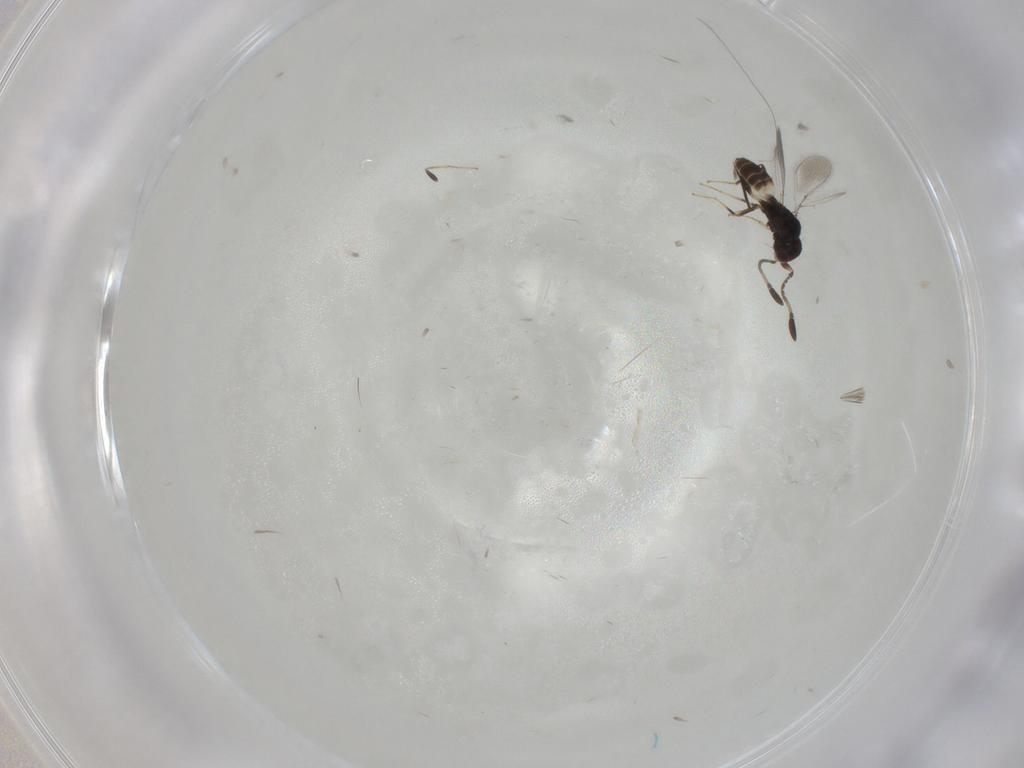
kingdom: Animalia
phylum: Arthropoda
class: Insecta
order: Hymenoptera
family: Mymaridae
